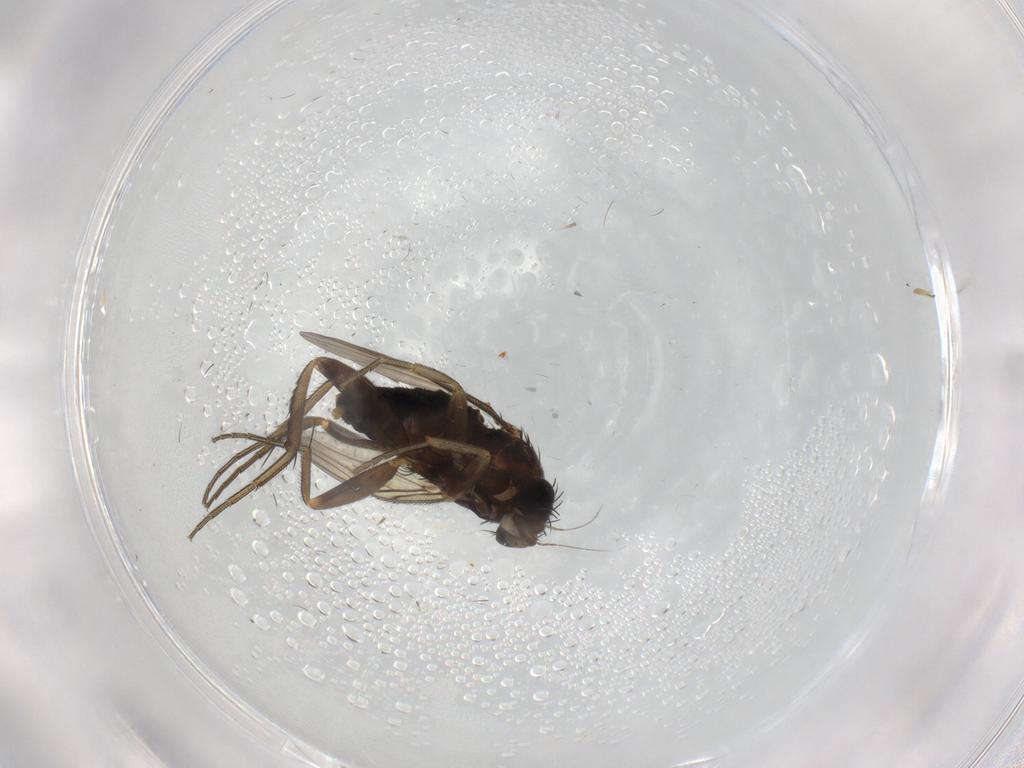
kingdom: Animalia
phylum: Arthropoda
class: Insecta
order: Diptera
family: Phoridae
